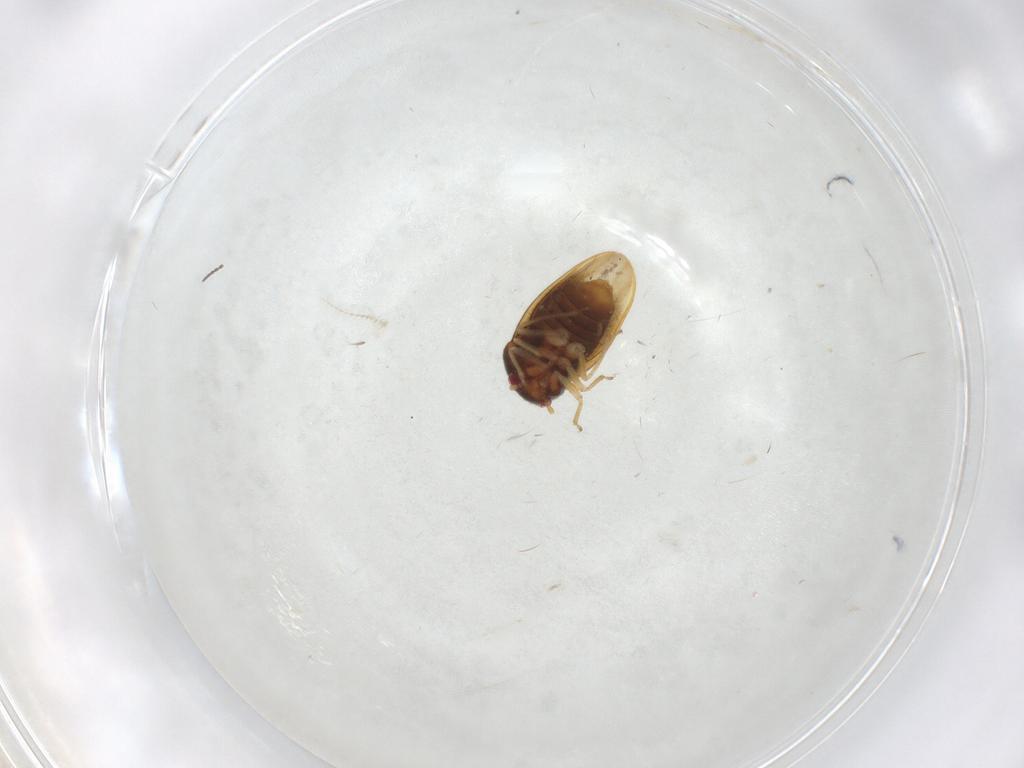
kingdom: Animalia
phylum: Arthropoda
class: Insecta
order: Hemiptera
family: Schizopteridae
